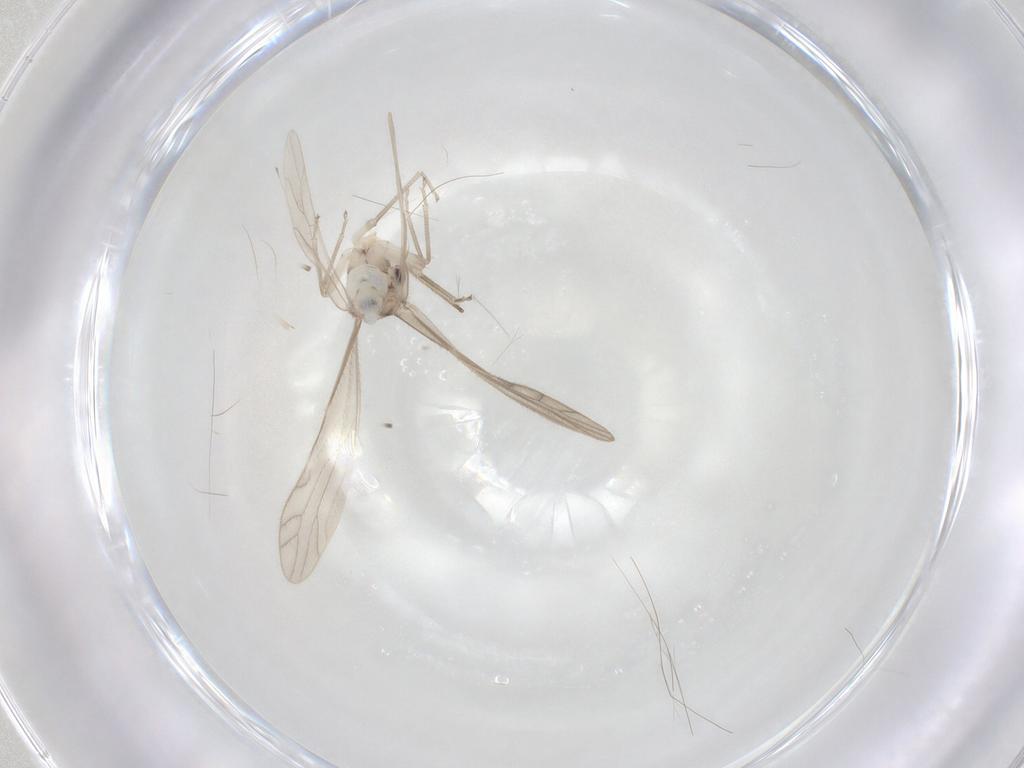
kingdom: Animalia
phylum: Arthropoda
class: Insecta
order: Psocodea
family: Caeciliusidae
